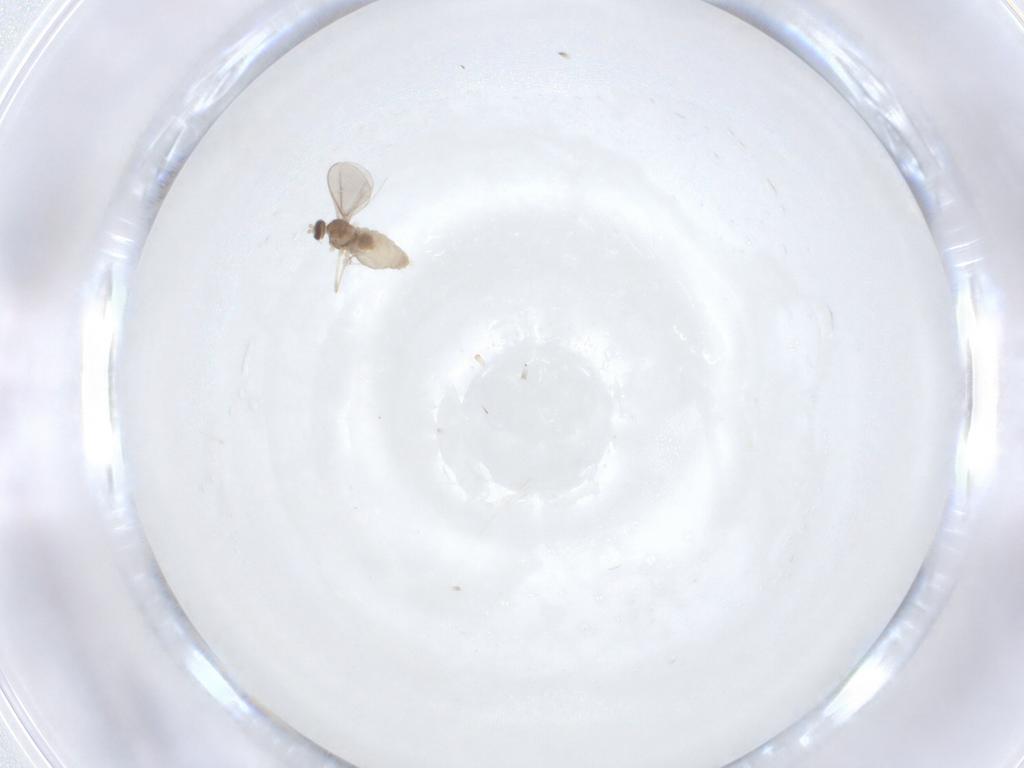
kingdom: Animalia
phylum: Arthropoda
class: Insecta
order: Diptera
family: Cecidomyiidae
